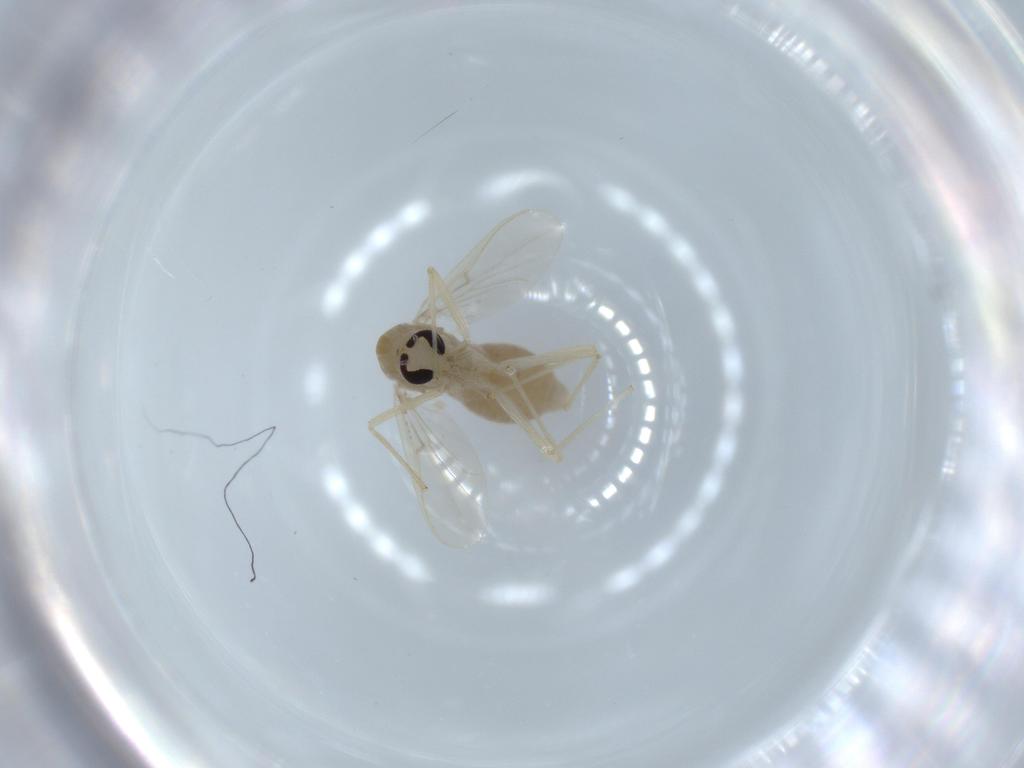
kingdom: Animalia
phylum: Arthropoda
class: Insecta
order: Diptera
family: Chironomidae
